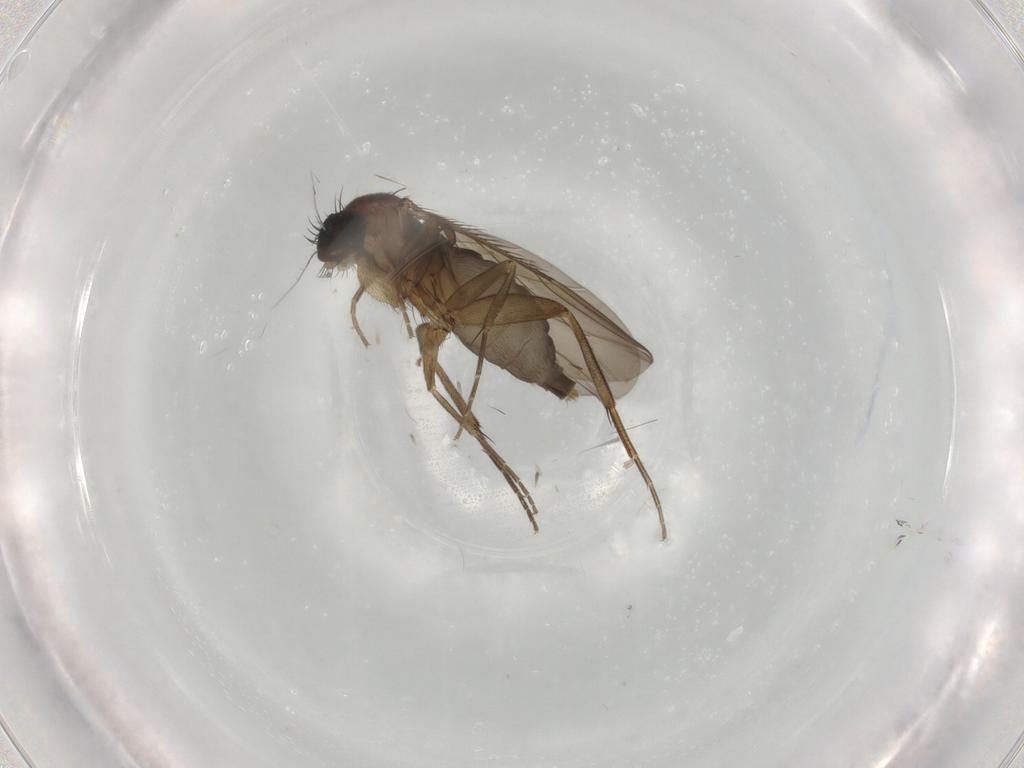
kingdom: Animalia
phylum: Arthropoda
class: Insecta
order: Diptera
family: Phoridae
